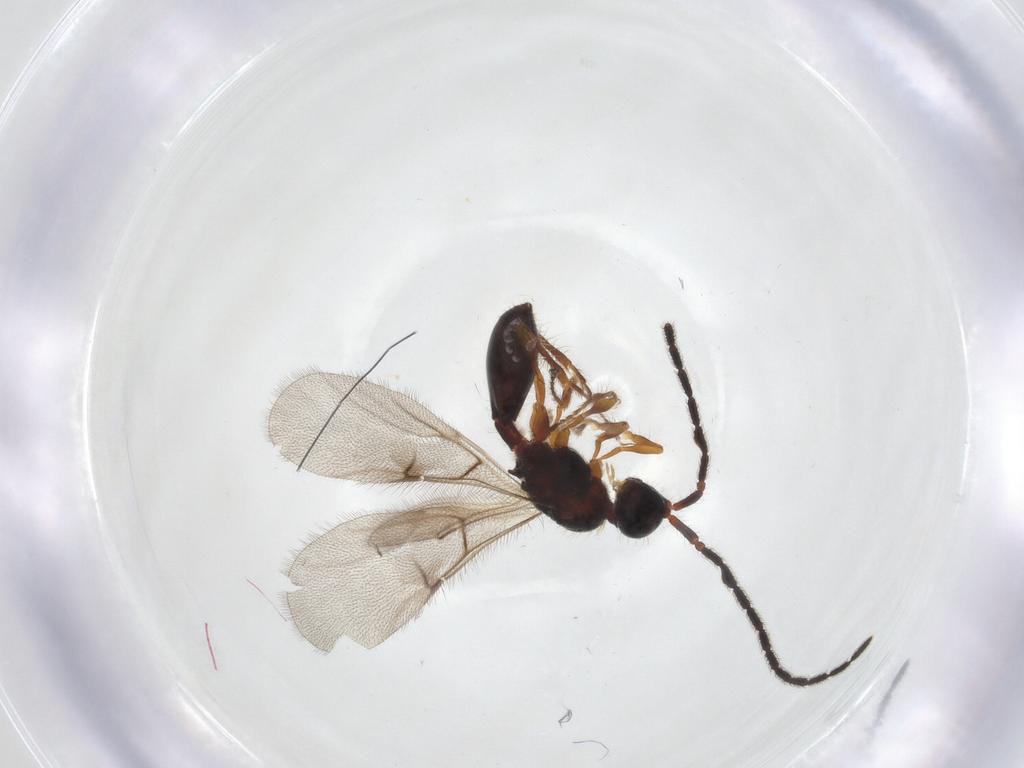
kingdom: Animalia
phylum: Arthropoda
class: Insecta
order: Hymenoptera
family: Diapriidae
